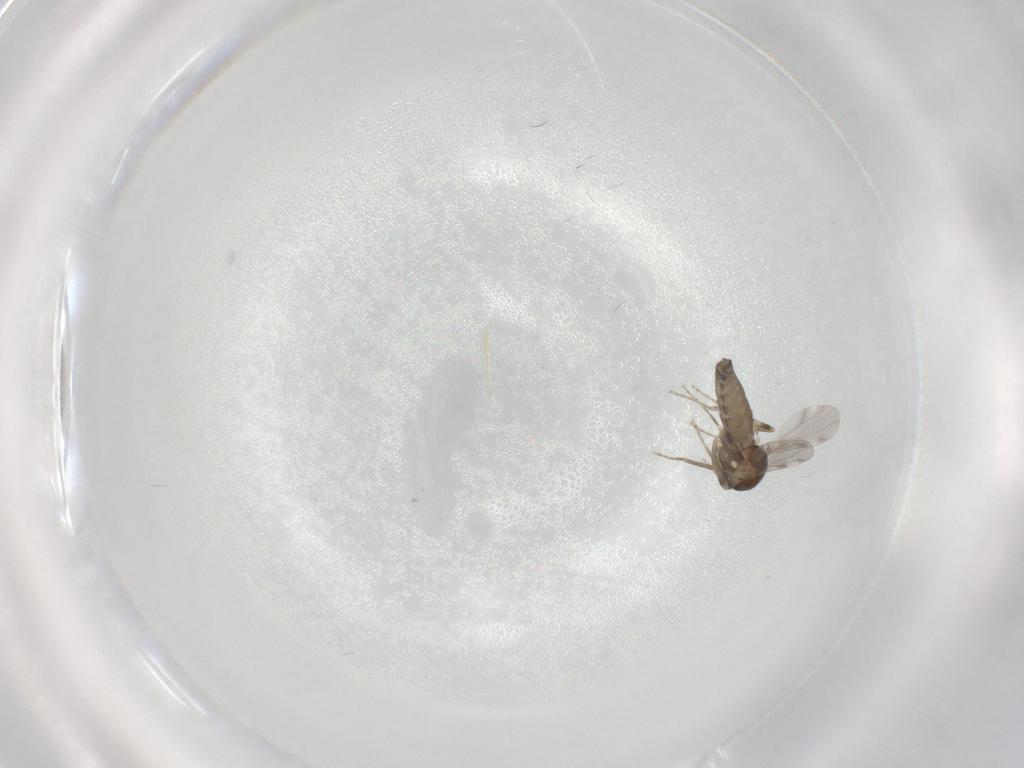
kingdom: Animalia
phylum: Arthropoda
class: Insecta
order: Diptera
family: Ceratopogonidae
